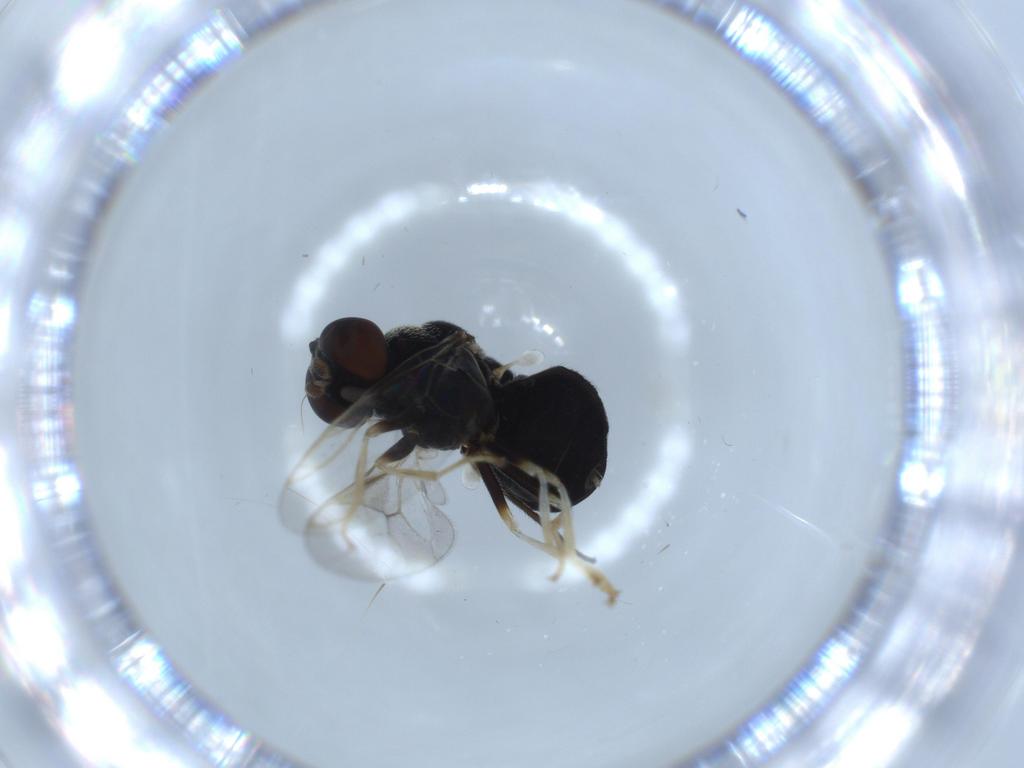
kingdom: Animalia
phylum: Arthropoda
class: Insecta
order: Diptera
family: Stratiomyidae
